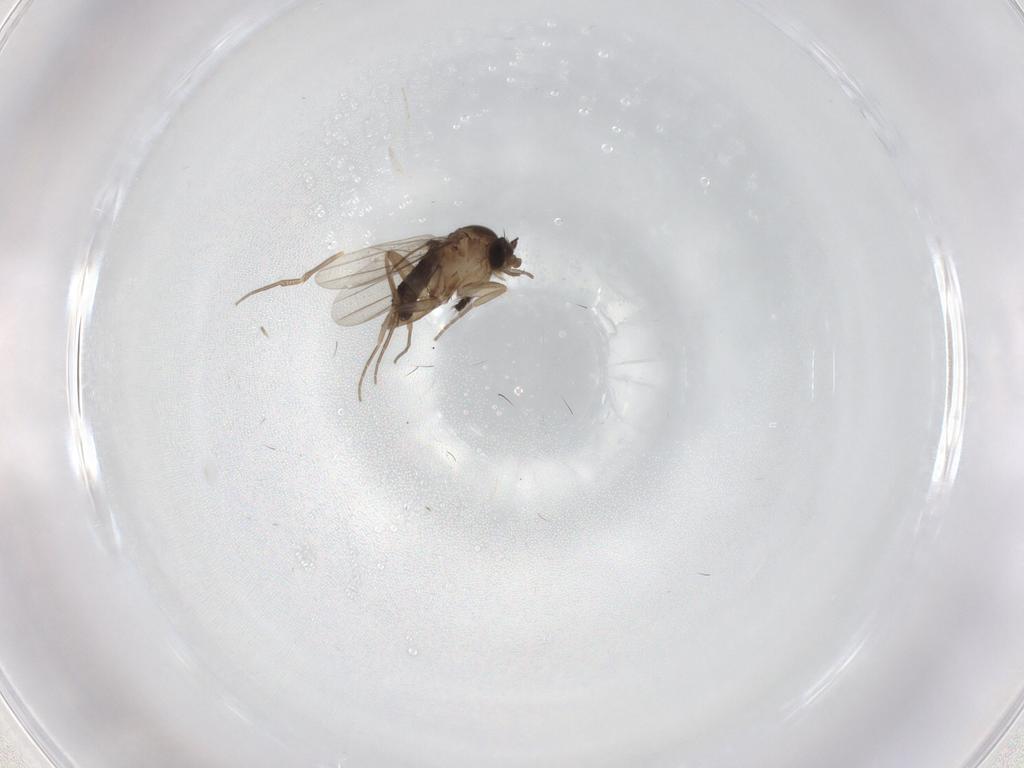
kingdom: Animalia
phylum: Arthropoda
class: Insecta
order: Diptera
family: Phoridae
